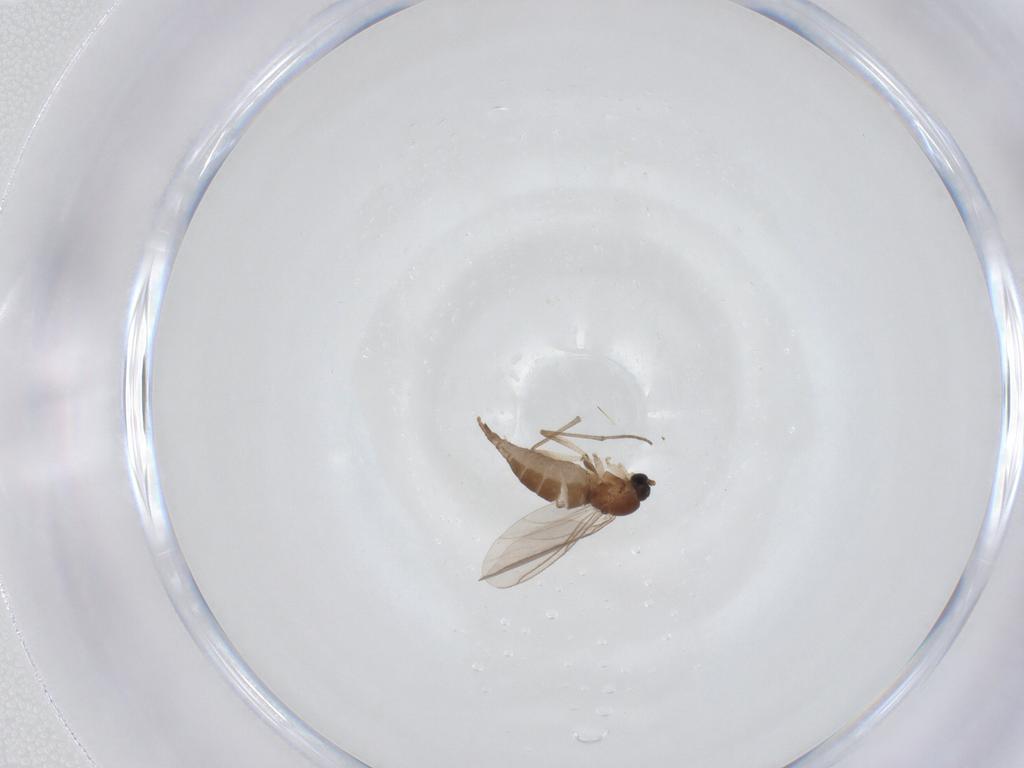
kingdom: Animalia
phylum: Arthropoda
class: Insecta
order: Diptera
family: Sciaridae
